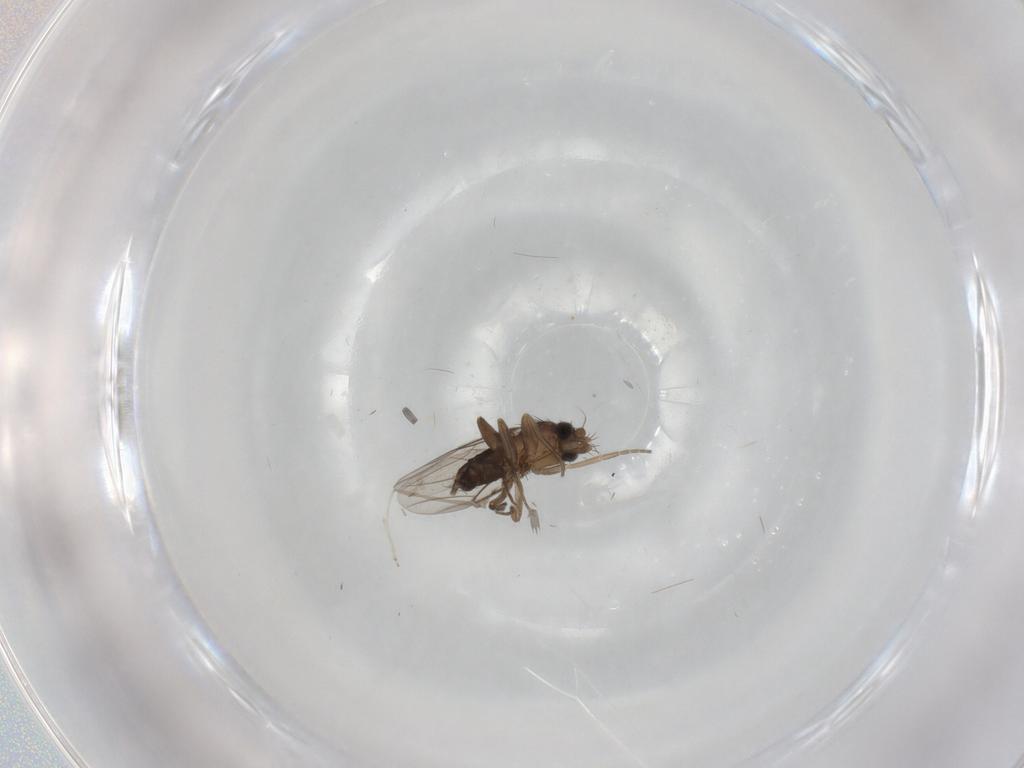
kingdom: Animalia
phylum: Arthropoda
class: Insecta
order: Diptera
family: Phoridae
